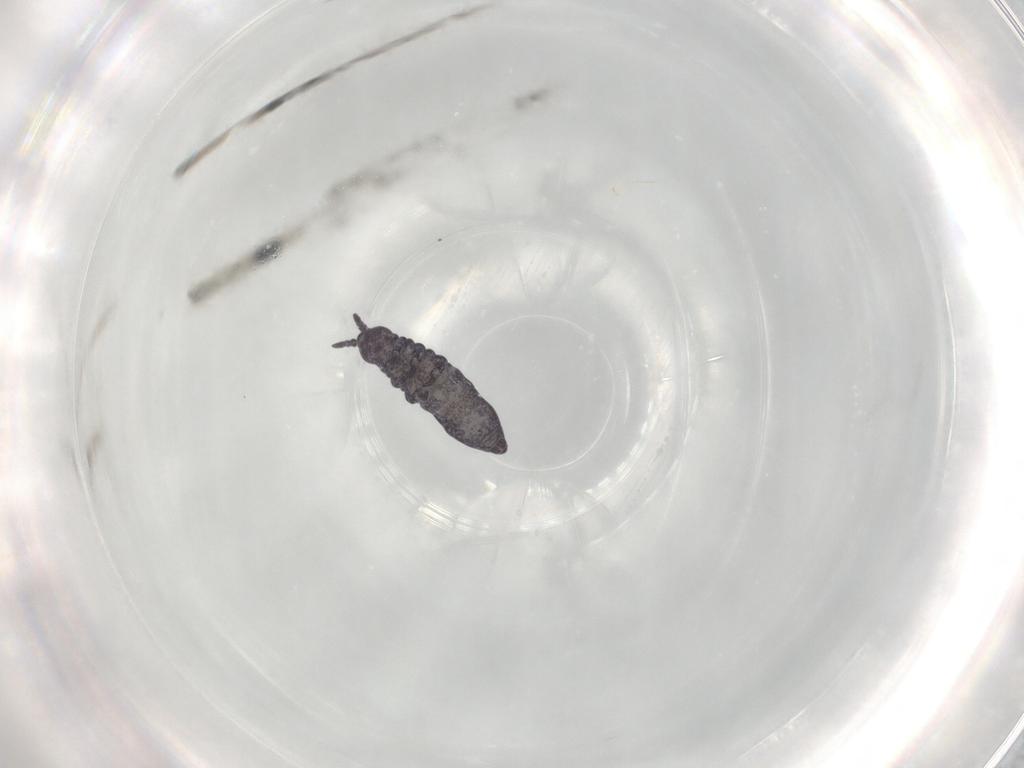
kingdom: Animalia
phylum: Arthropoda
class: Collembola
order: Poduromorpha
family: Brachystomellidae
